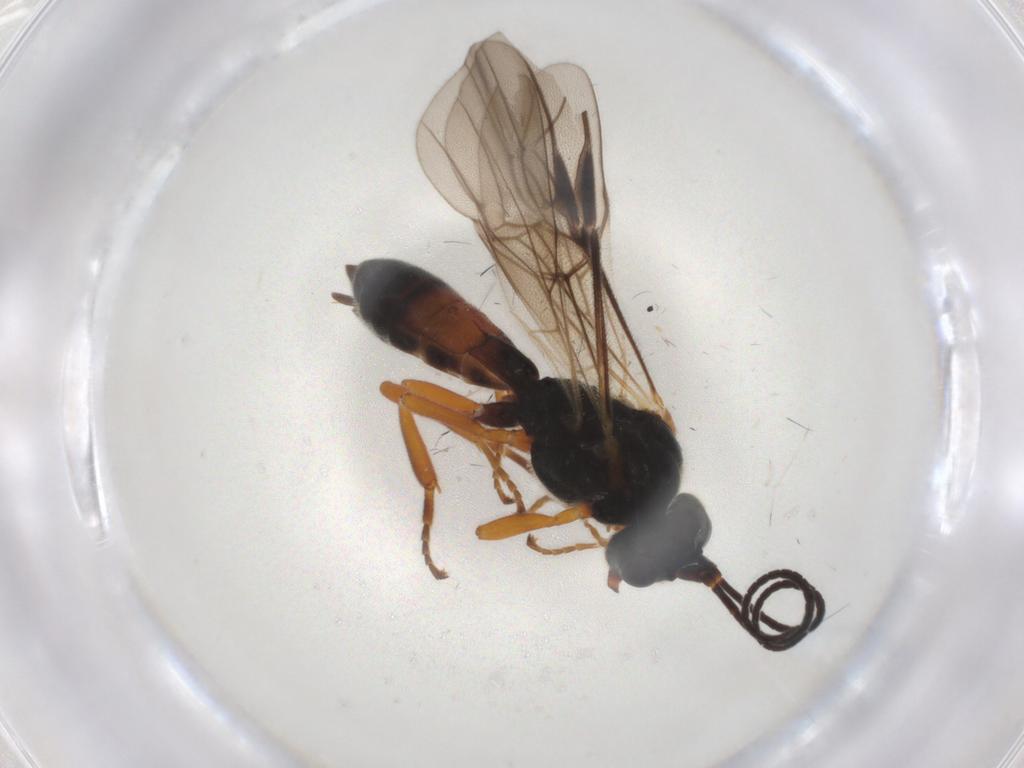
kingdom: Animalia
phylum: Arthropoda
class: Insecta
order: Hymenoptera
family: Braconidae
